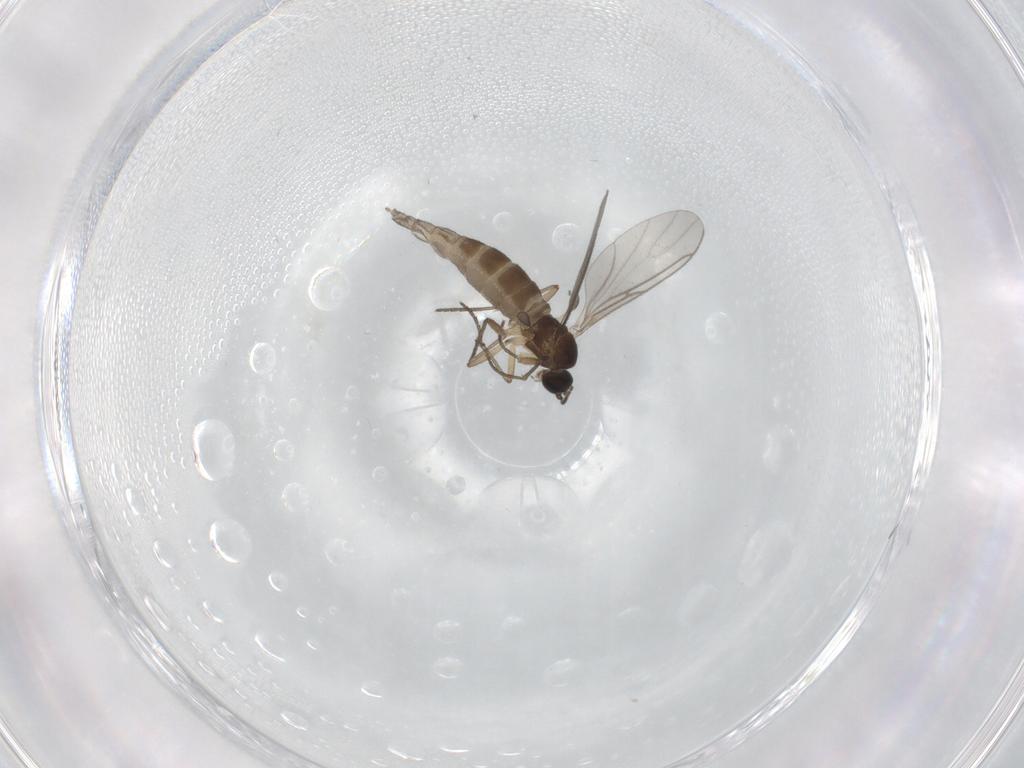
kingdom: Animalia
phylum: Arthropoda
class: Insecta
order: Diptera
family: Sciaridae
